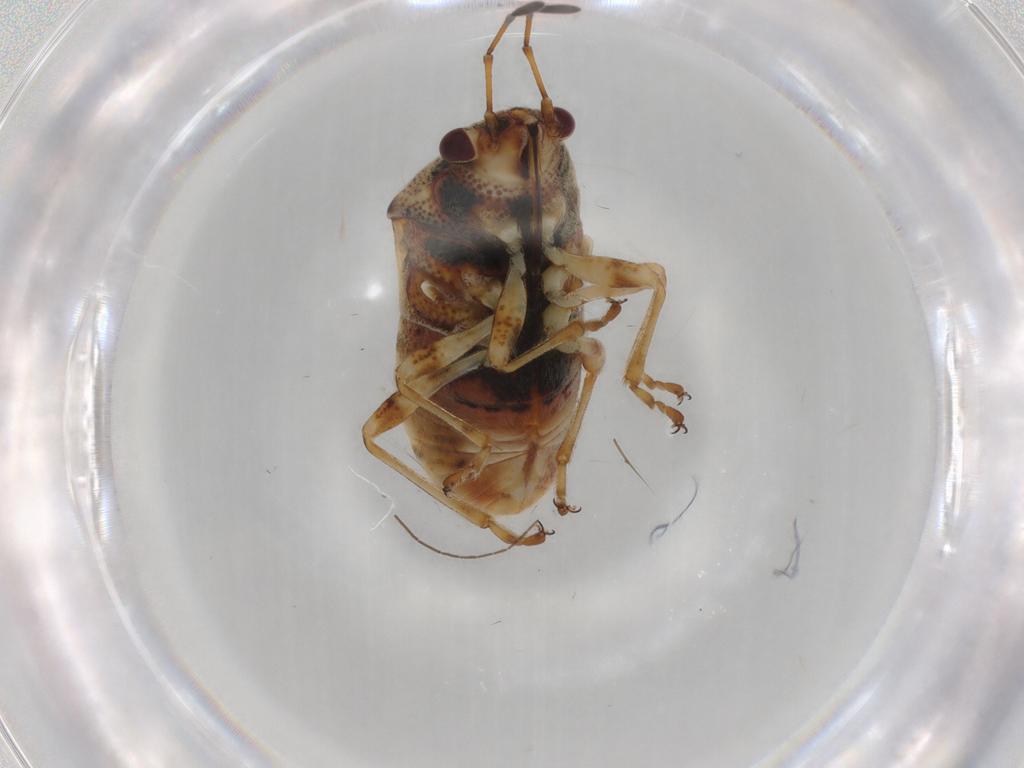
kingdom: Animalia
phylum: Arthropoda
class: Insecta
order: Hemiptera
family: Lygaeidae
